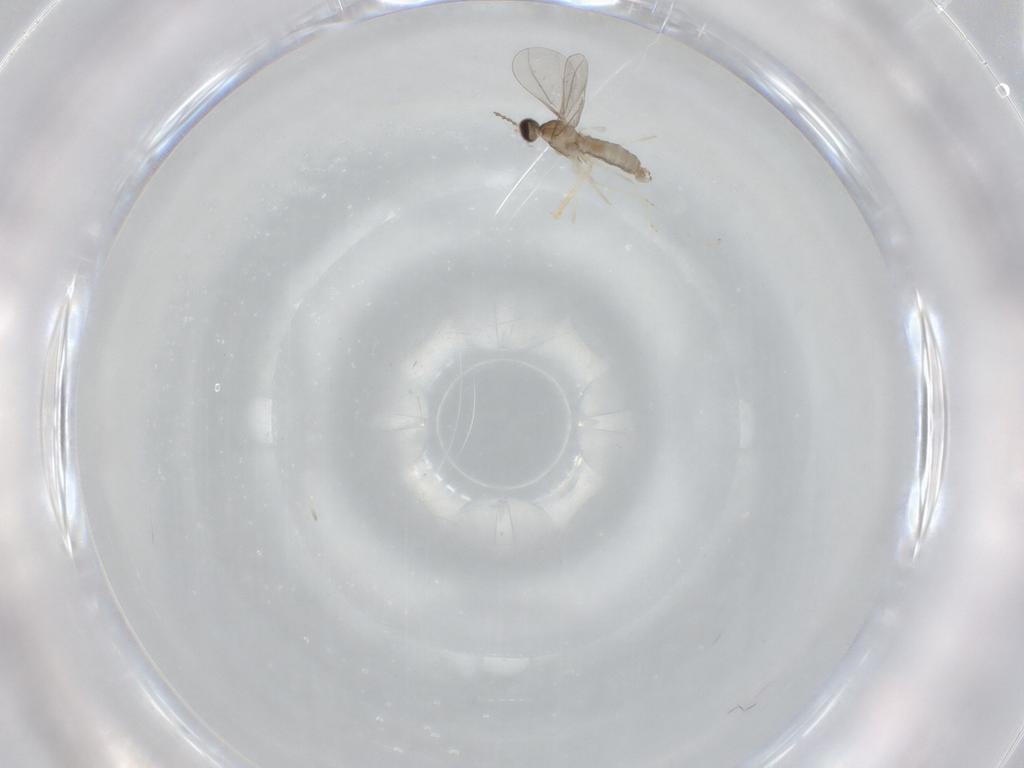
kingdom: Animalia
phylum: Arthropoda
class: Insecta
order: Diptera
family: Cecidomyiidae
